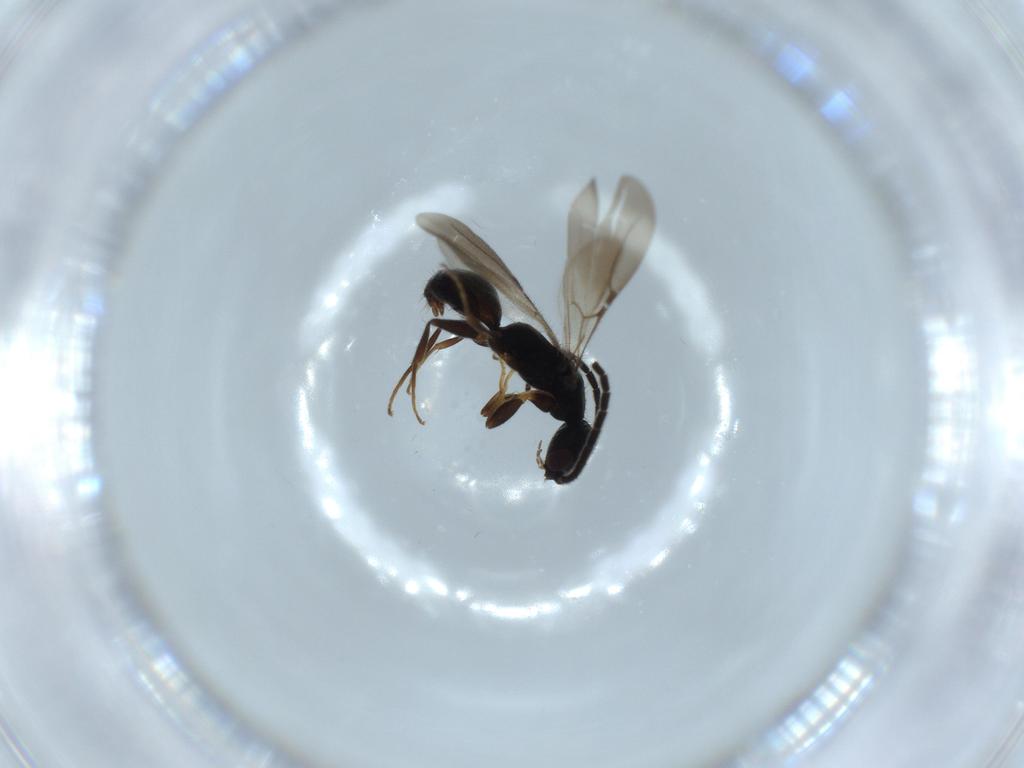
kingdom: Animalia
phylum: Arthropoda
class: Insecta
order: Hymenoptera
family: Bethylidae
